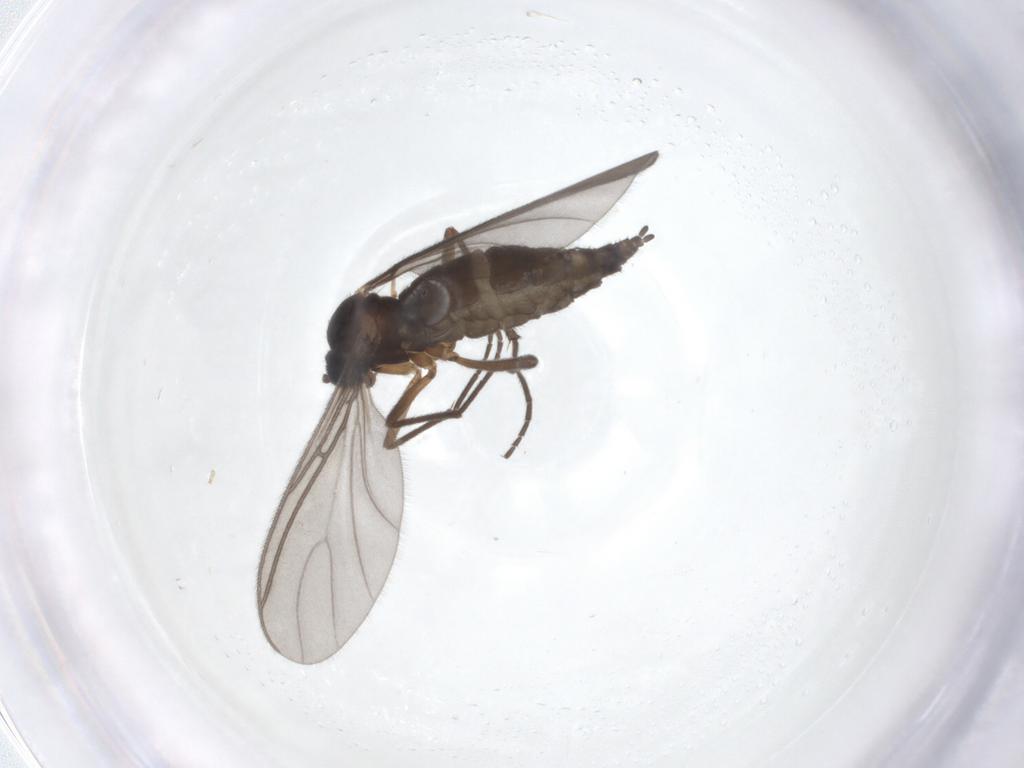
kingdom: Animalia
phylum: Arthropoda
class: Insecta
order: Diptera
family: Sciaridae
